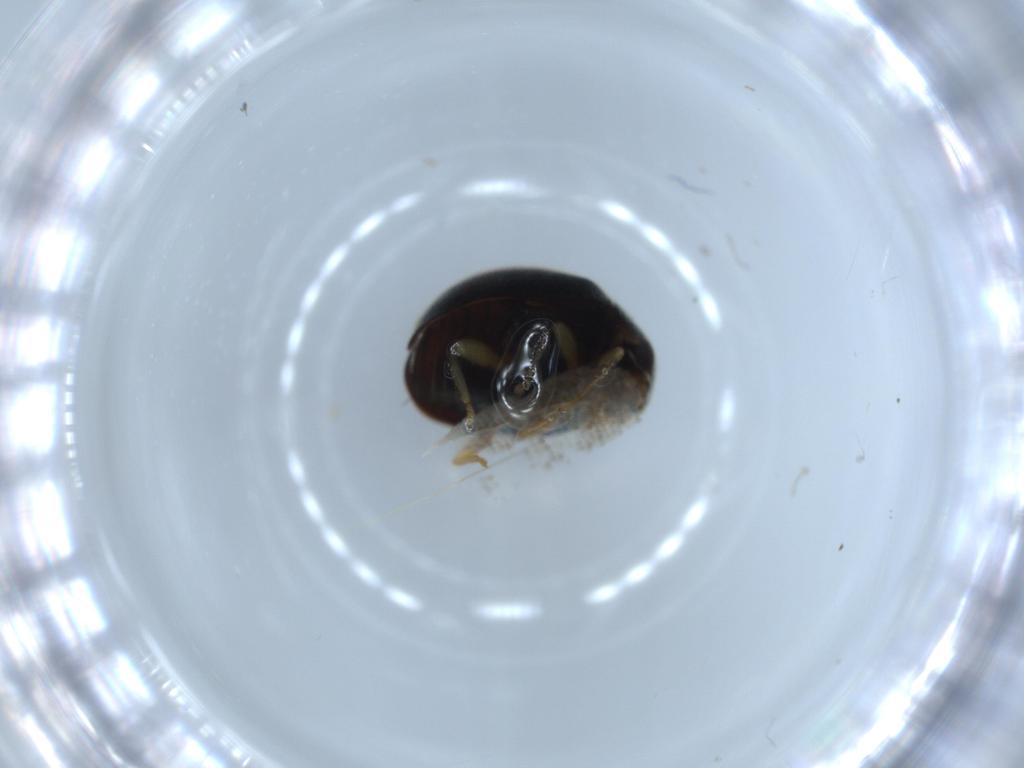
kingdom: Animalia
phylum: Arthropoda
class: Insecta
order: Coleoptera
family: Coccinellidae
